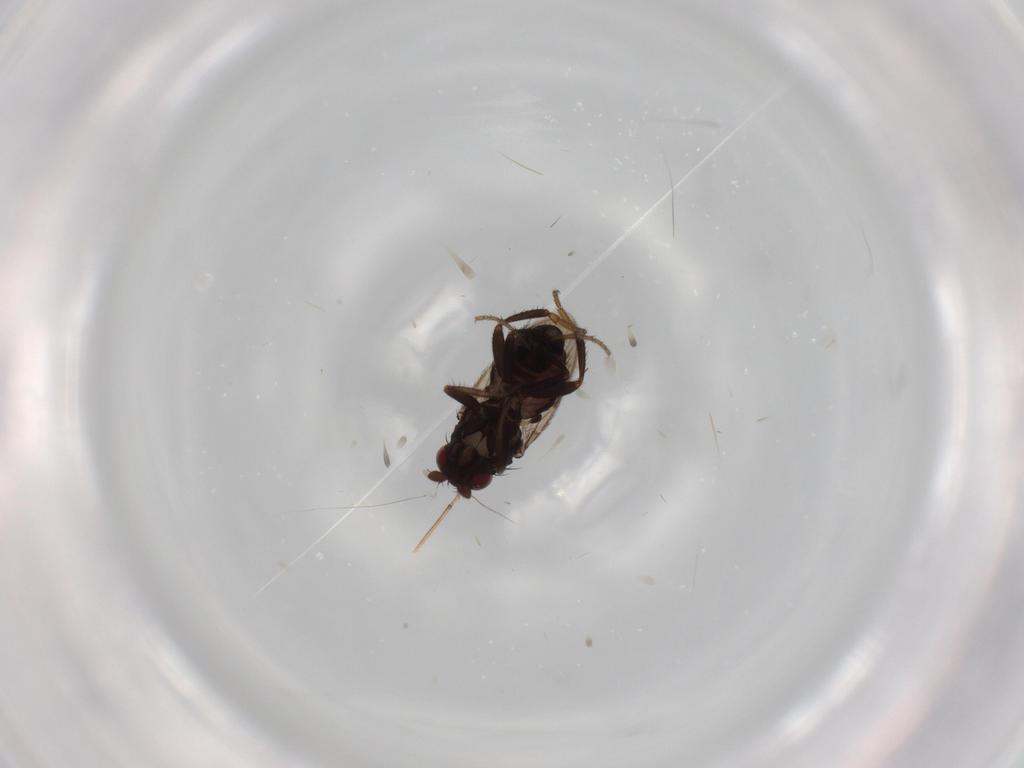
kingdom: Animalia
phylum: Arthropoda
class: Insecta
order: Diptera
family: Sphaeroceridae
